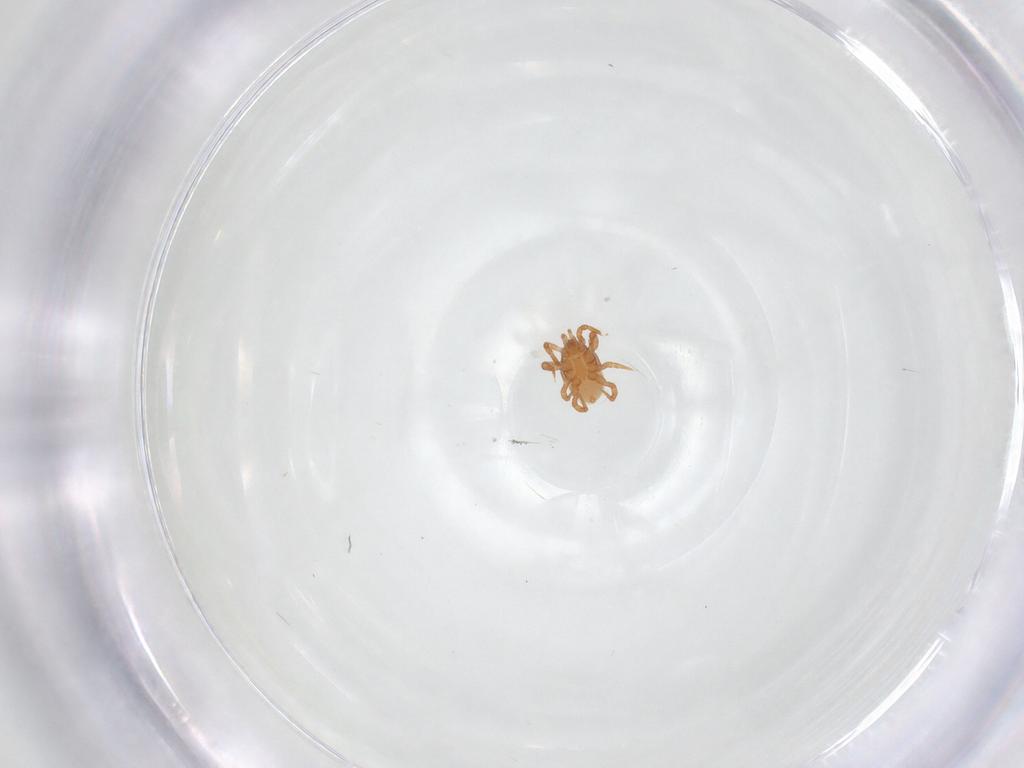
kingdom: Animalia
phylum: Arthropoda
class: Arachnida
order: Mesostigmata
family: Parasitidae
